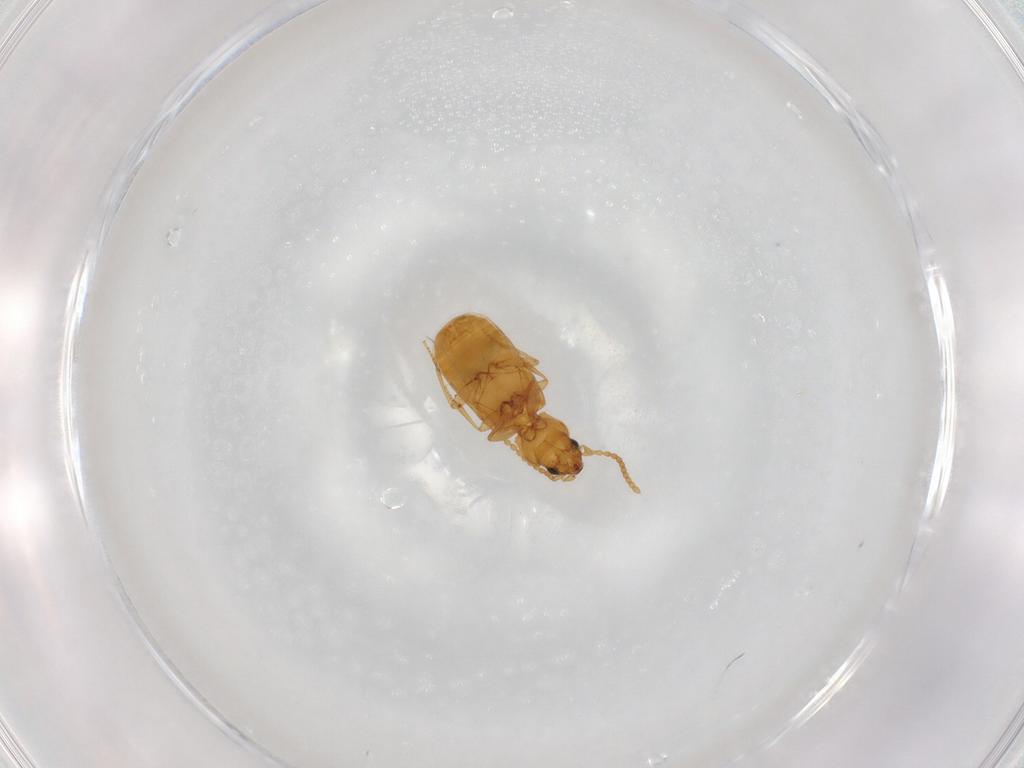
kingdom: Animalia
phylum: Arthropoda
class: Insecta
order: Coleoptera
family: Carabidae
